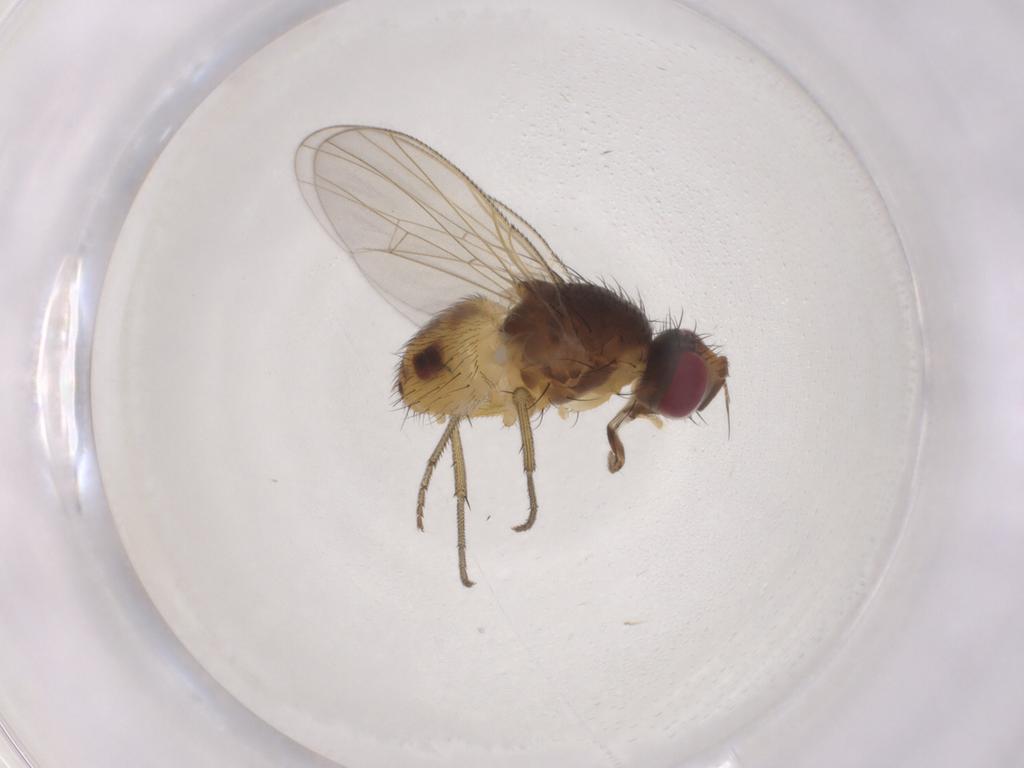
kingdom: Animalia
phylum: Arthropoda
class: Insecta
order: Diptera
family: Muscidae
